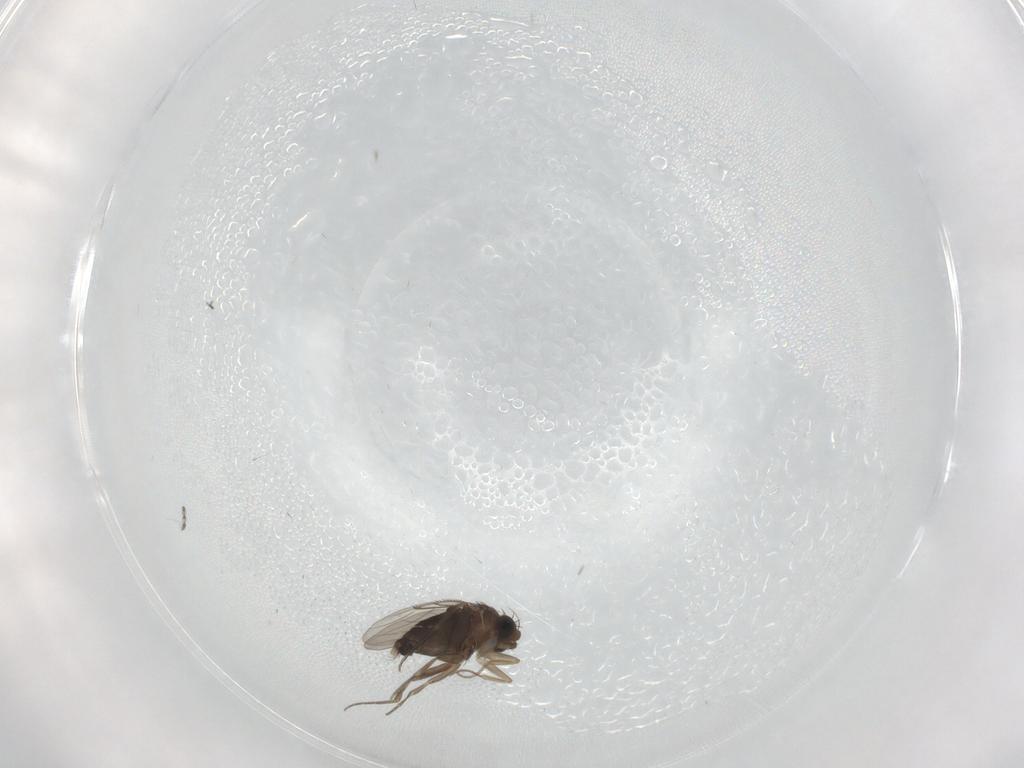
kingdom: Animalia
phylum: Arthropoda
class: Insecta
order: Diptera
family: Phoridae
